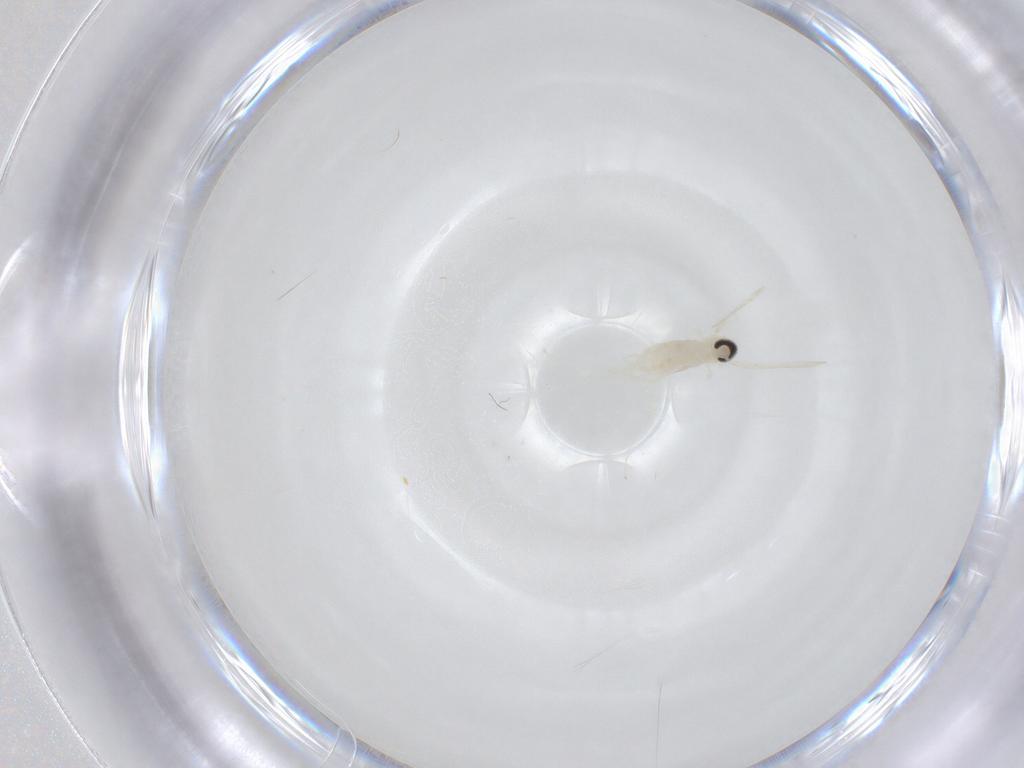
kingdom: Animalia
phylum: Arthropoda
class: Insecta
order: Diptera
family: Cecidomyiidae
